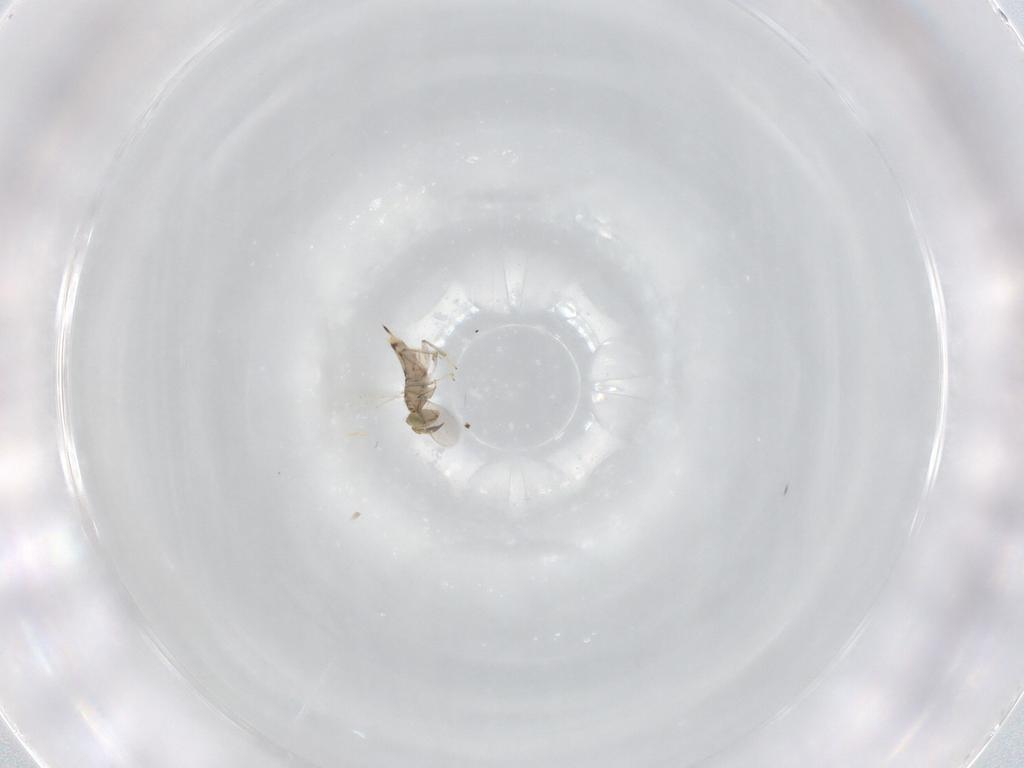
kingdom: Animalia
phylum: Arthropoda
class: Insecta
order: Hymenoptera
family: Aphelinidae
